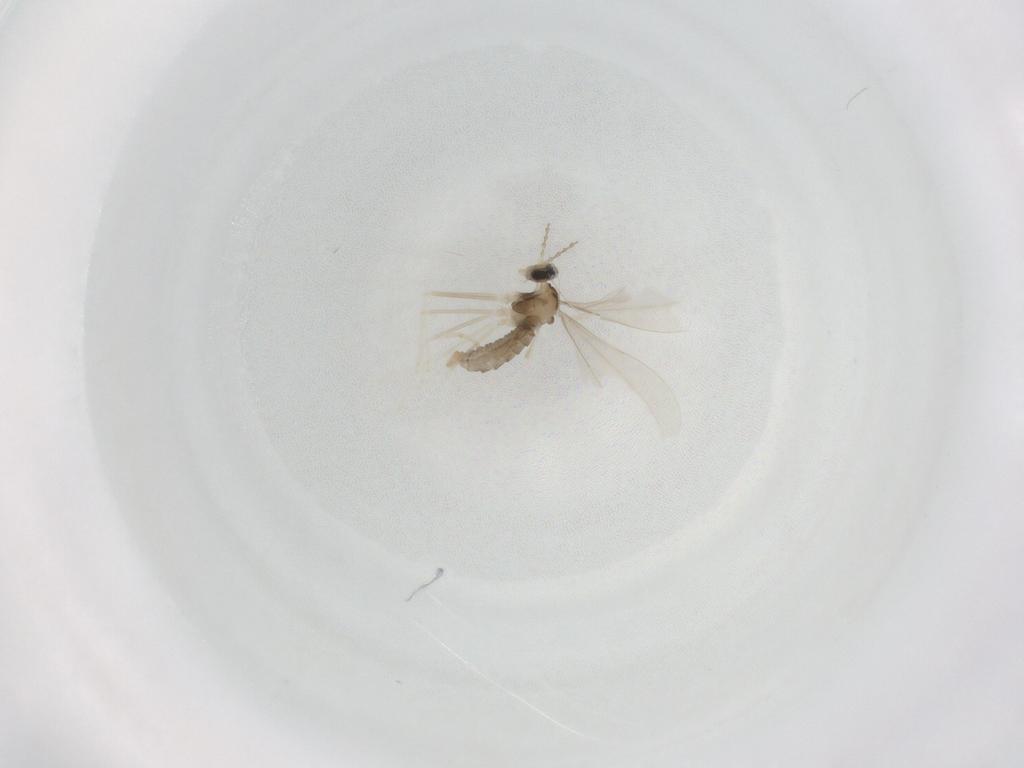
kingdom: Animalia
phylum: Arthropoda
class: Insecta
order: Diptera
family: Cecidomyiidae
